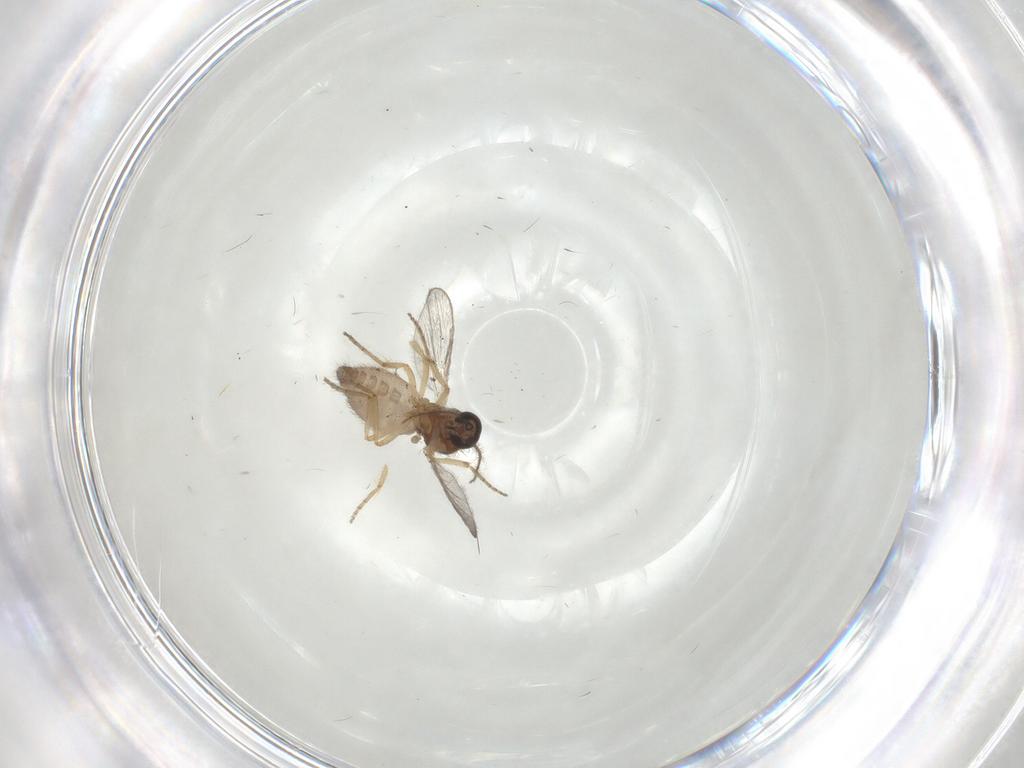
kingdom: Animalia
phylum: Arthropoda
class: Insecta
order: Diptera
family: Ceratopogonidae
